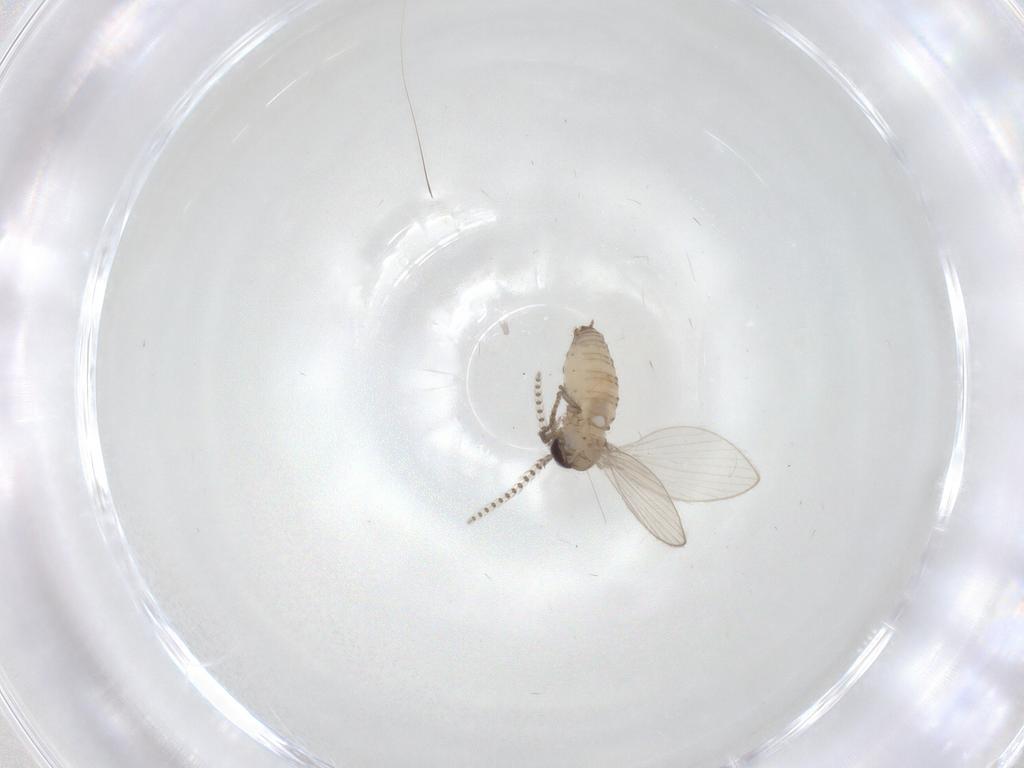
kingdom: Animalia
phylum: Arthropoda
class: Insecta
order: Diptera
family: Psychodidae
